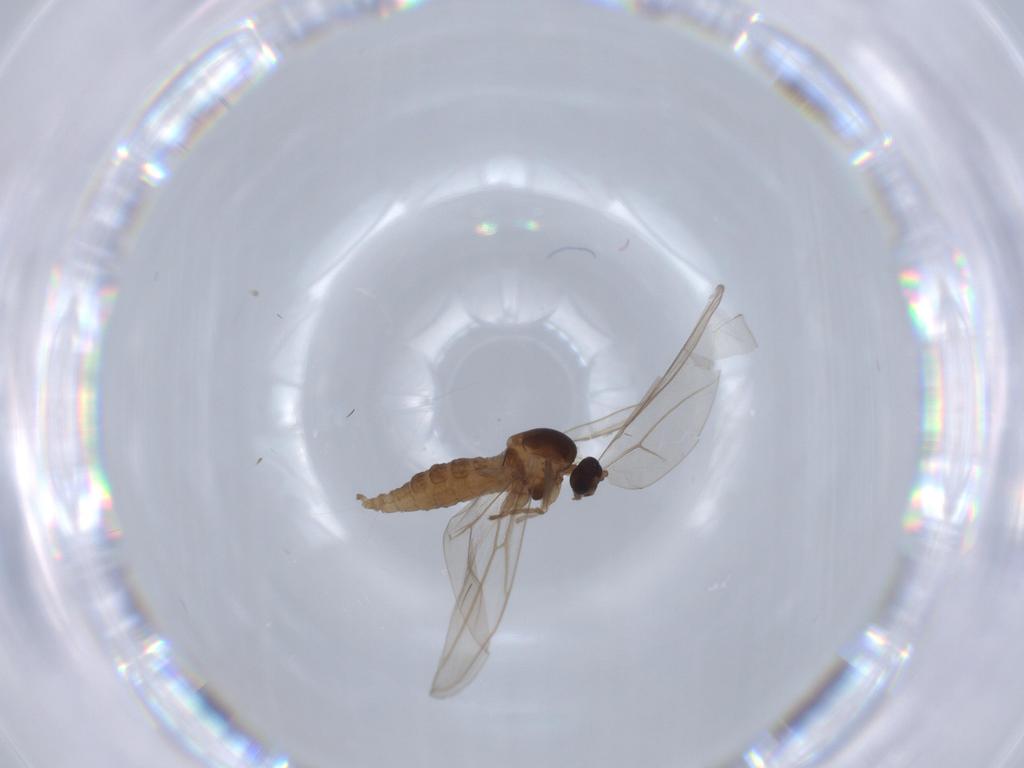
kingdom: Animalia
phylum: Arthropoda
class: Insecta
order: Diptera
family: Cecidomyiidae
